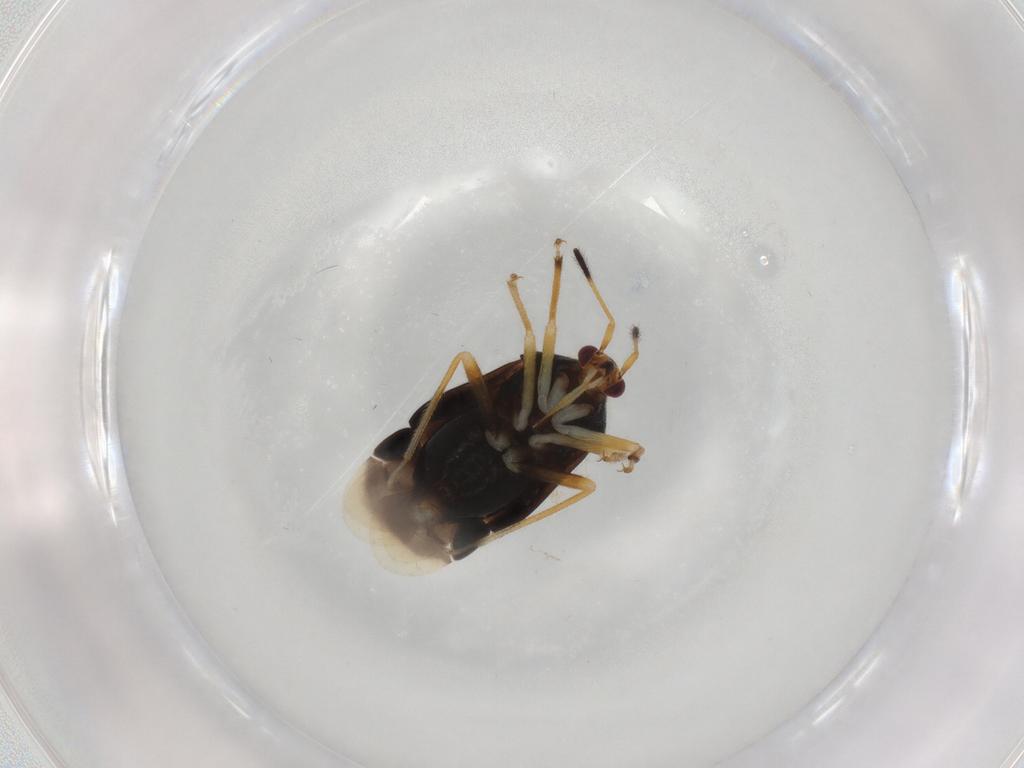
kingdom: Animalia
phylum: Arthropoda
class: Insecta
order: Hemiptera
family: Miridae
